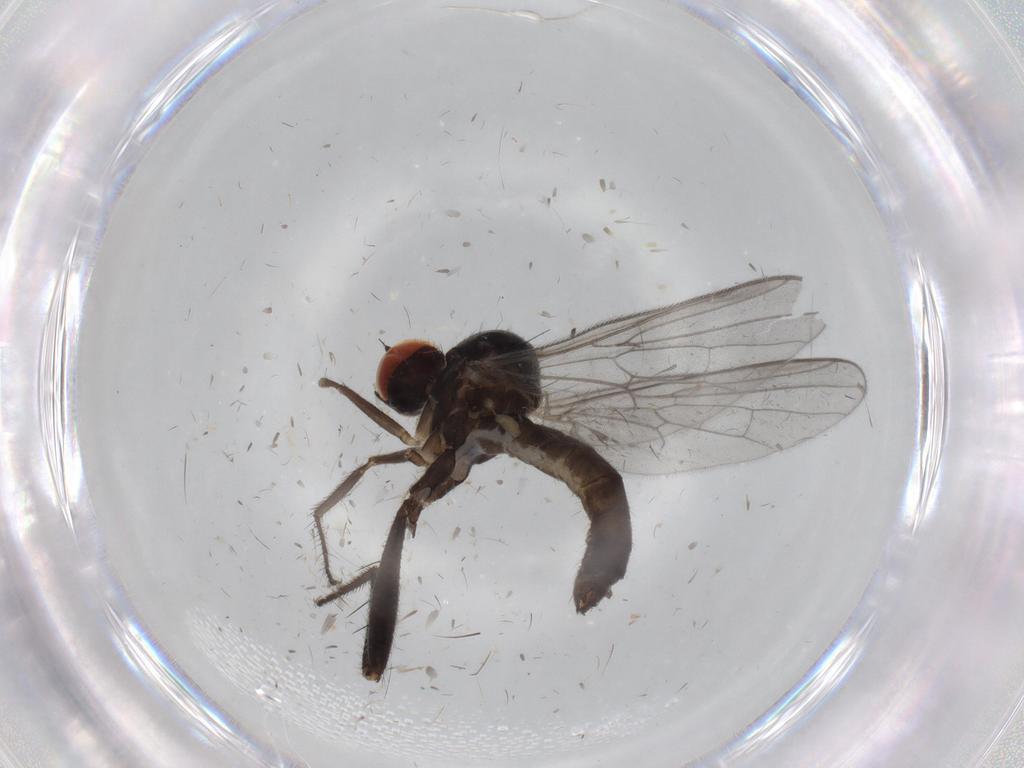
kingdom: Animalia
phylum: Arthropoda
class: Insecta
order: Diptera
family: Hybotidae
